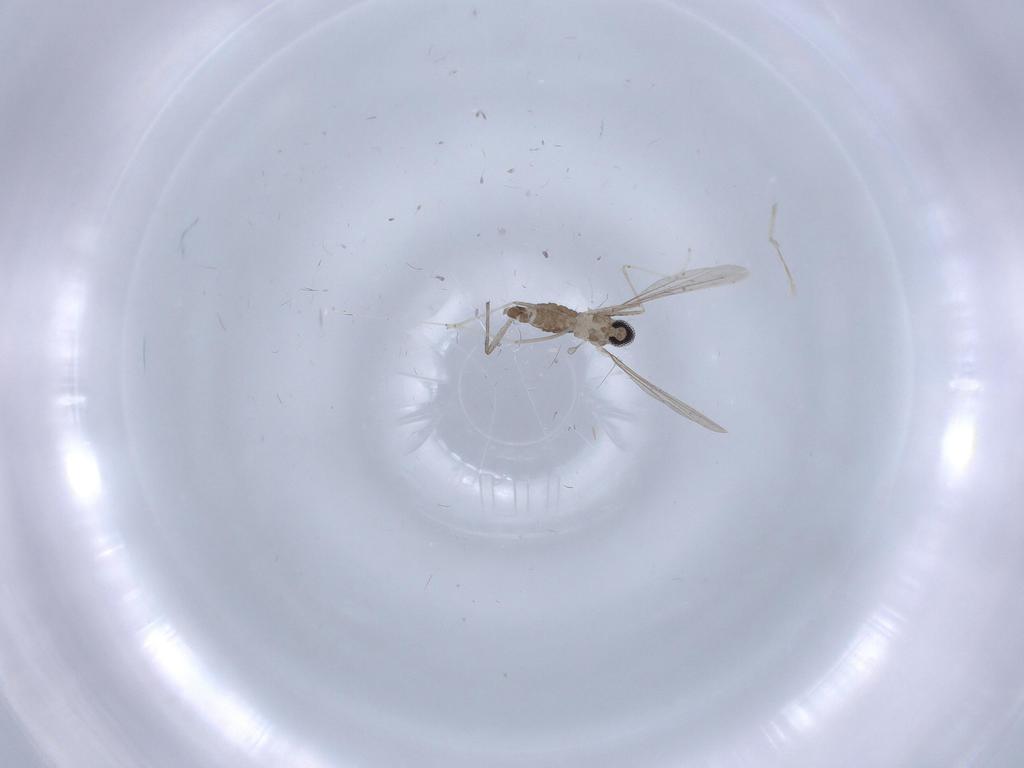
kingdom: Animalia
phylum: Arthropoda
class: Insecta
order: Diptera
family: Cecidomyiidae
